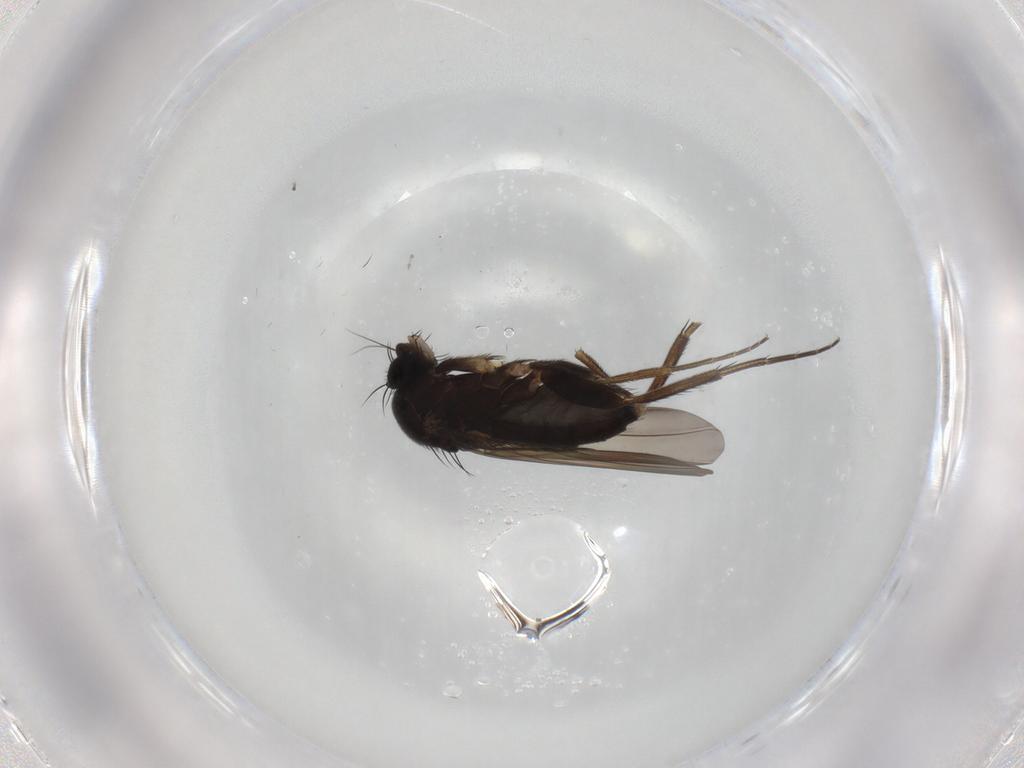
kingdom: Animalia
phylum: Arthropoda
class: Insecta
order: Diptera
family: Phoridae
